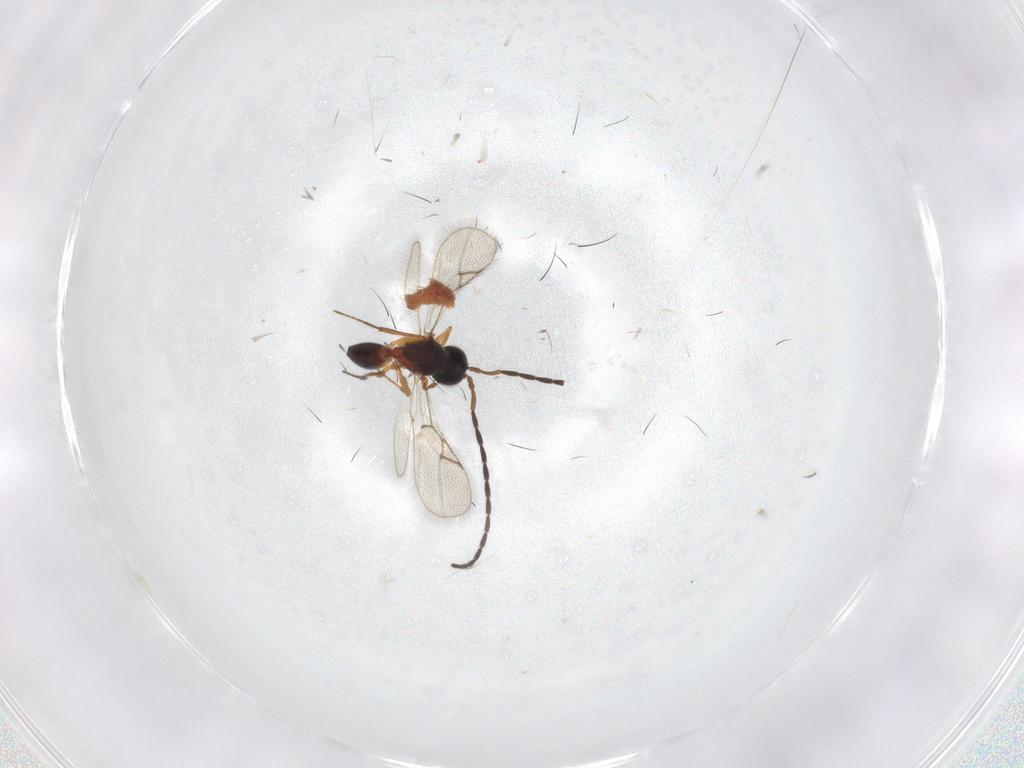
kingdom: Animalia
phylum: Arthropoda
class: Insecta
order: Hymenoptera
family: Figitidae
